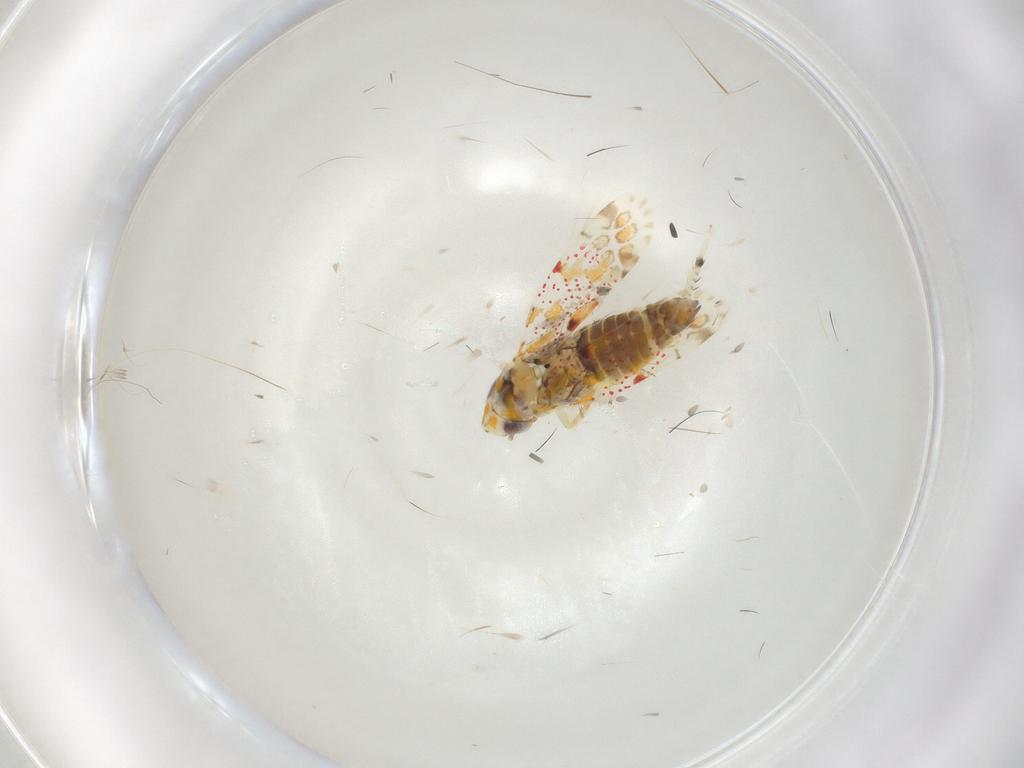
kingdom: Animalia
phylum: Arthropoda
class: Insecta
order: Hemiptera
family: Cicadellidae
